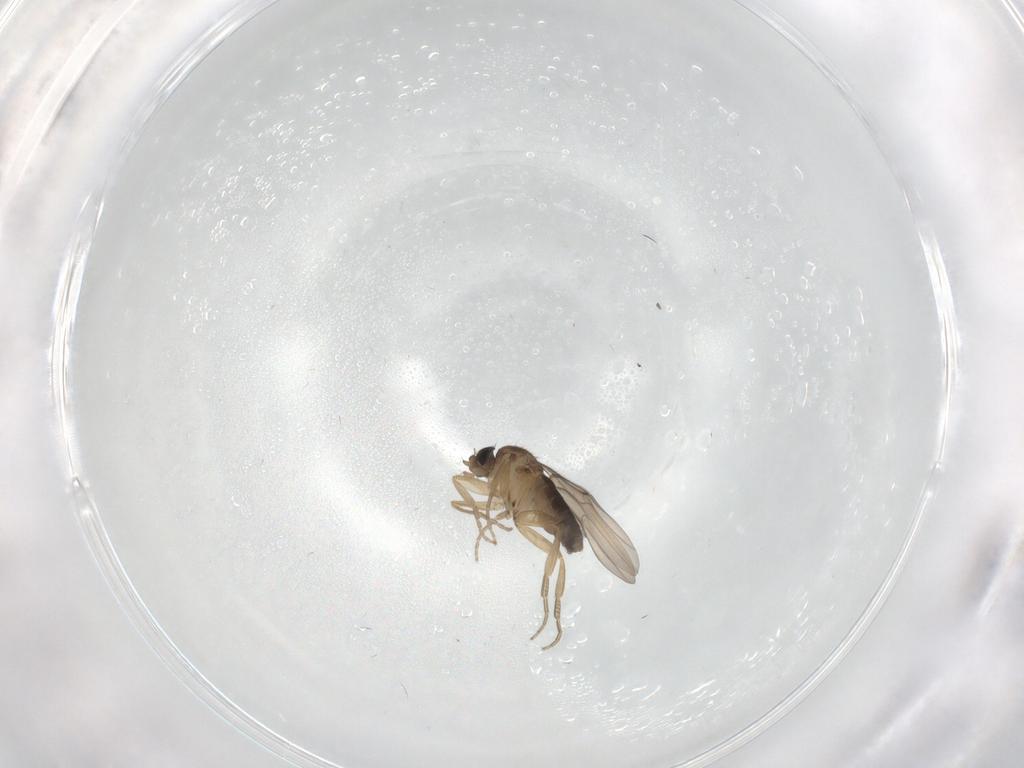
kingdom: Animalia
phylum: Arthropoda
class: Insecta
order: Diptera
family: Phoridae
